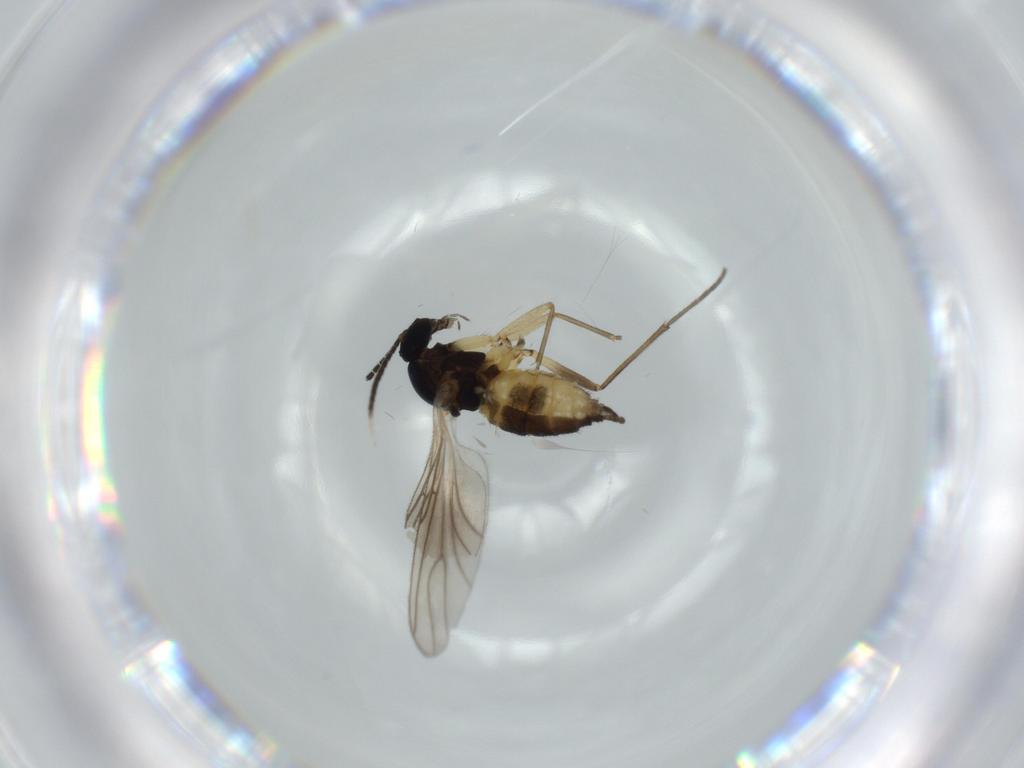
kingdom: Animalia
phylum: Arthropoda
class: Insecta
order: Diptera
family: Sciaridae
